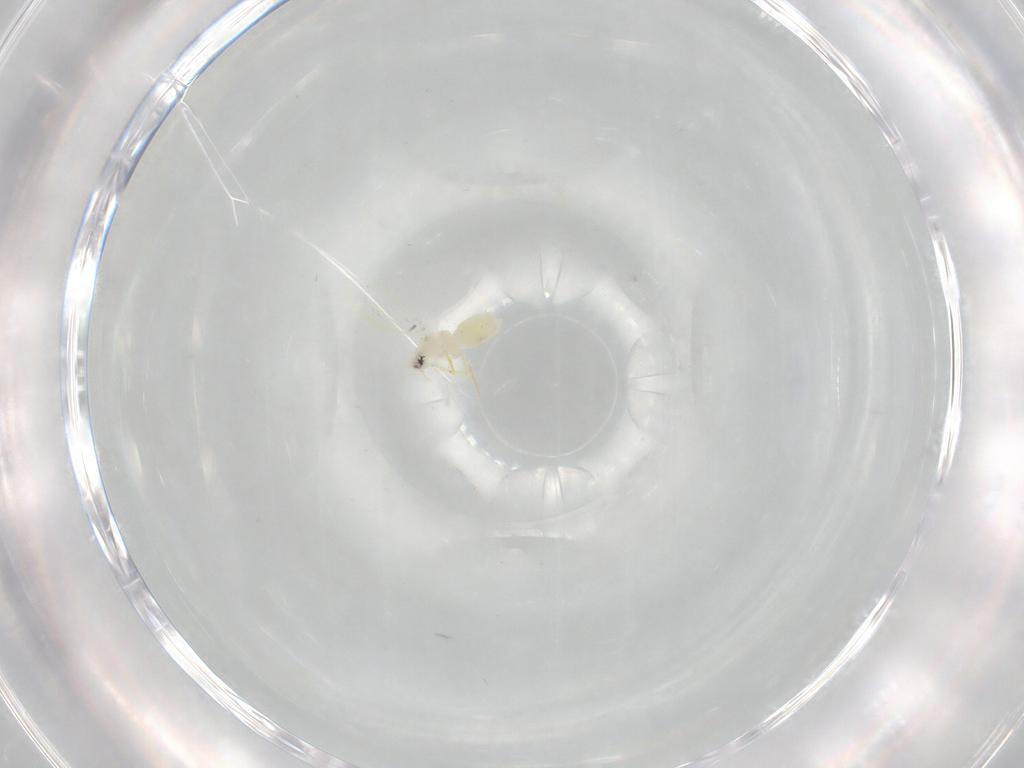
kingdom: Animalia
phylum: Arthropoda
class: Insecta
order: Hemiptera
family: Aleyrodidae
